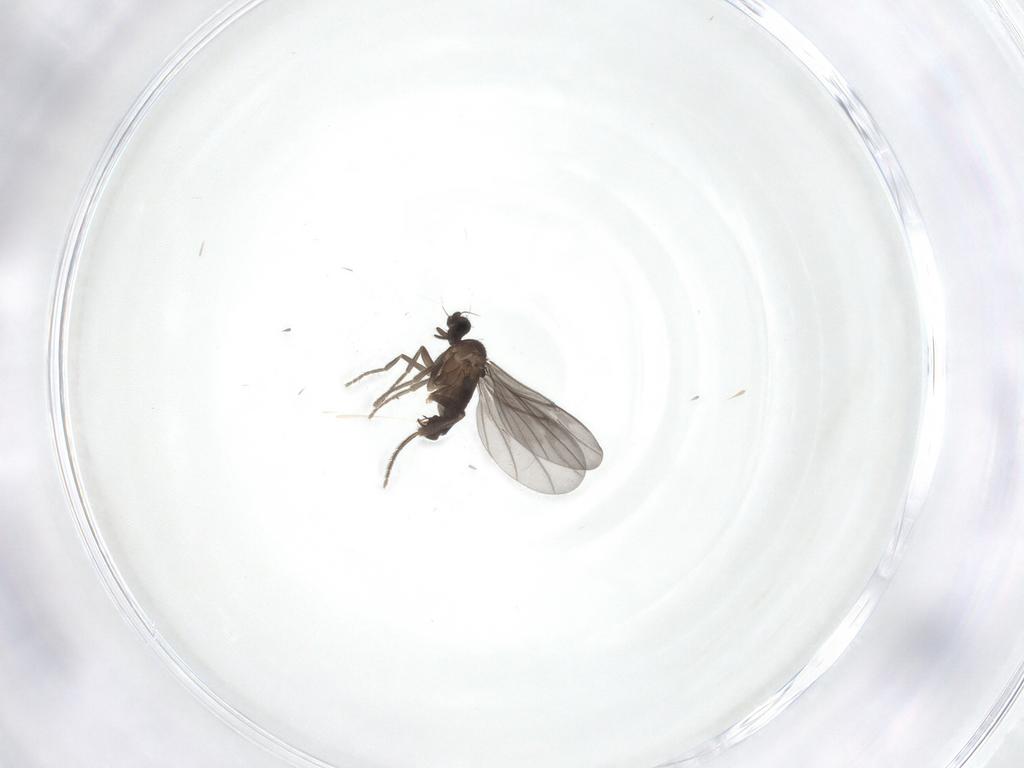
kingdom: Animalia
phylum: Arthropoda
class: Insecta
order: Diptera
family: Phoridae
